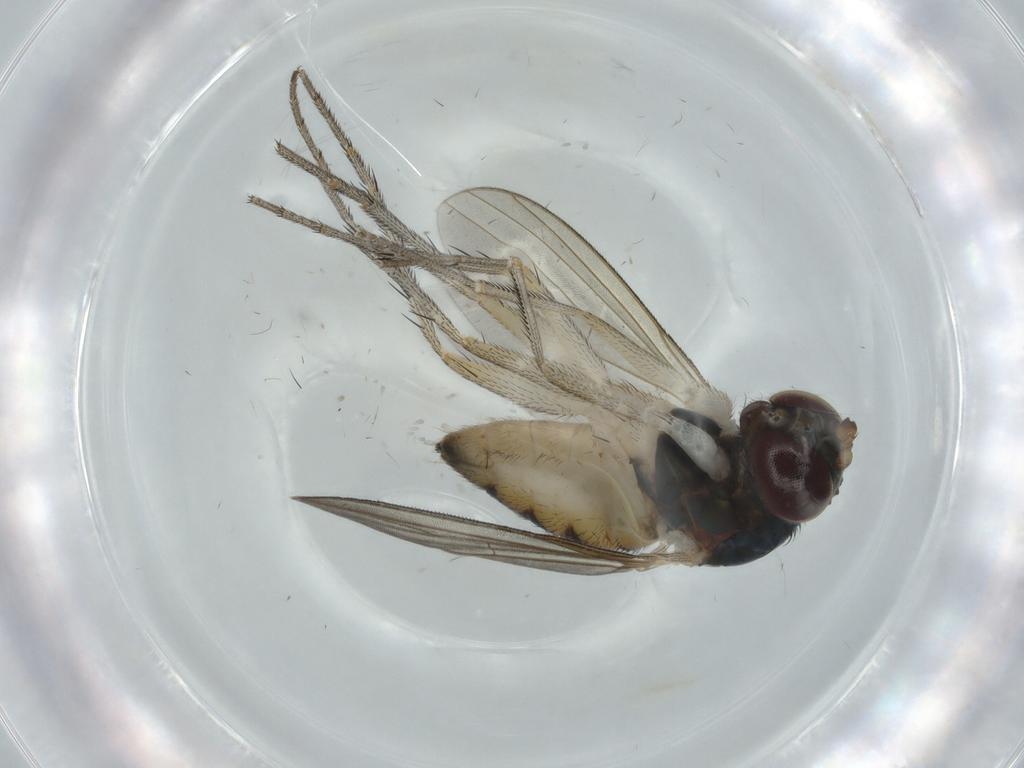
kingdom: Animalia
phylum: Arthropoda
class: Insecta
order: Diptera
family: Dolichopodidae
